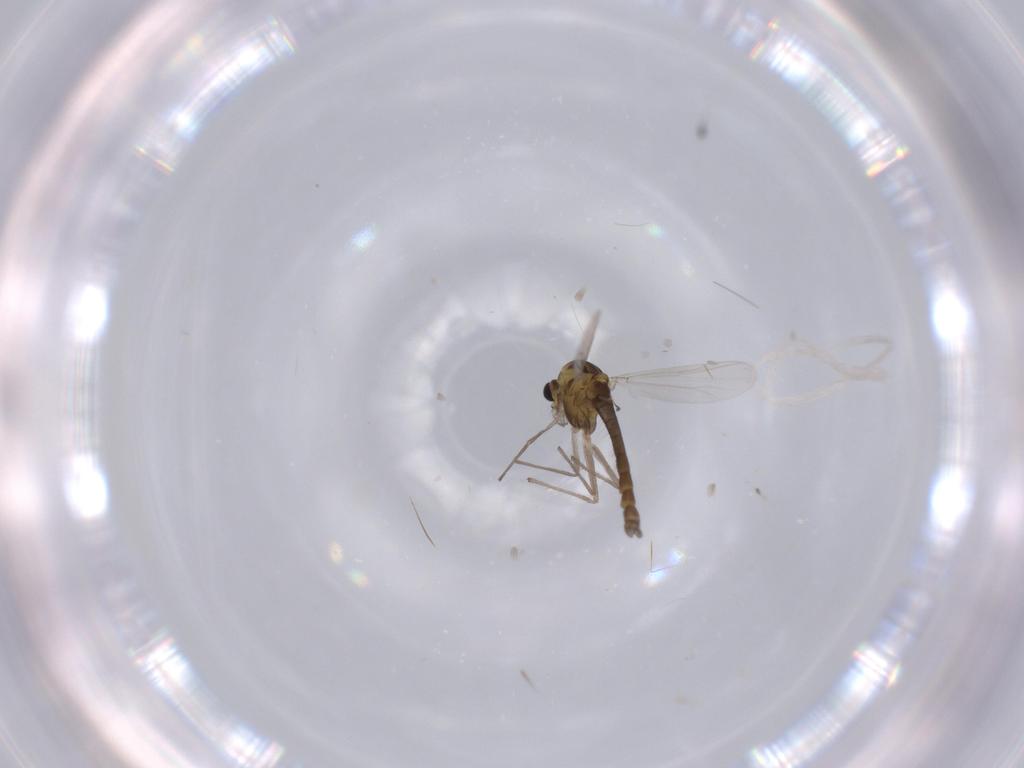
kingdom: Animalia
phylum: Arthropoda
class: Insecta
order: Diptera
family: Chironomidae
